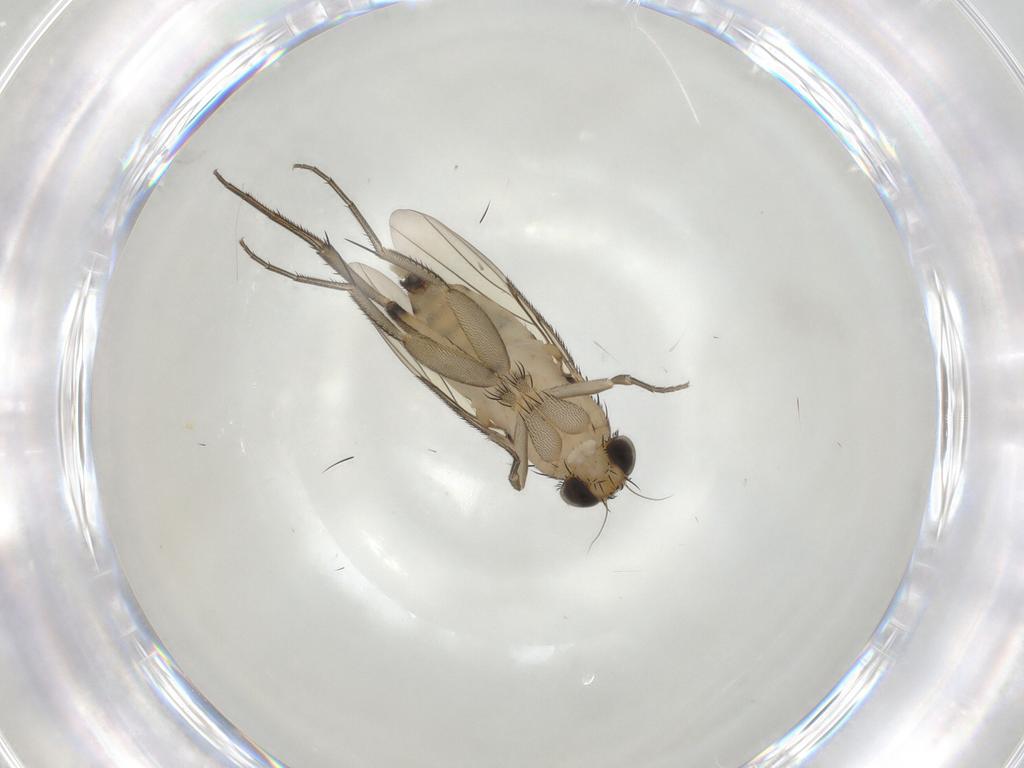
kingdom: Animalia
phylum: Arthropoda
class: Insecta
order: Diptera
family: Phoridae
